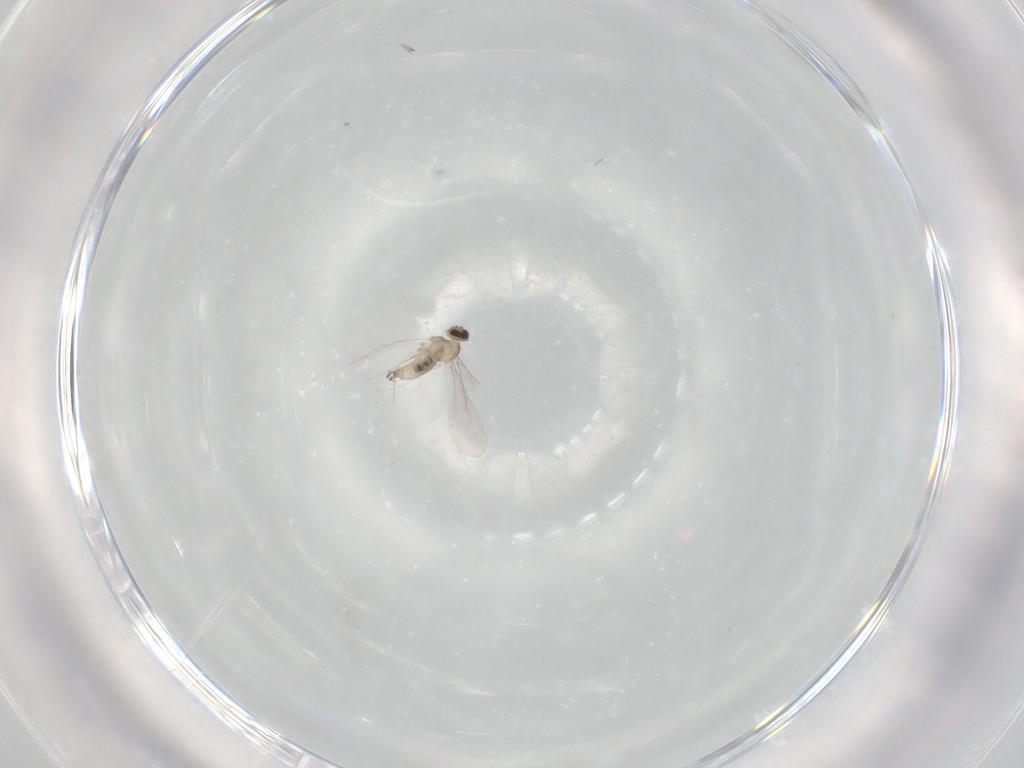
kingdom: Animalia
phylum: Arthropoda
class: Insecta
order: Diptera
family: Cecidomyiidae
